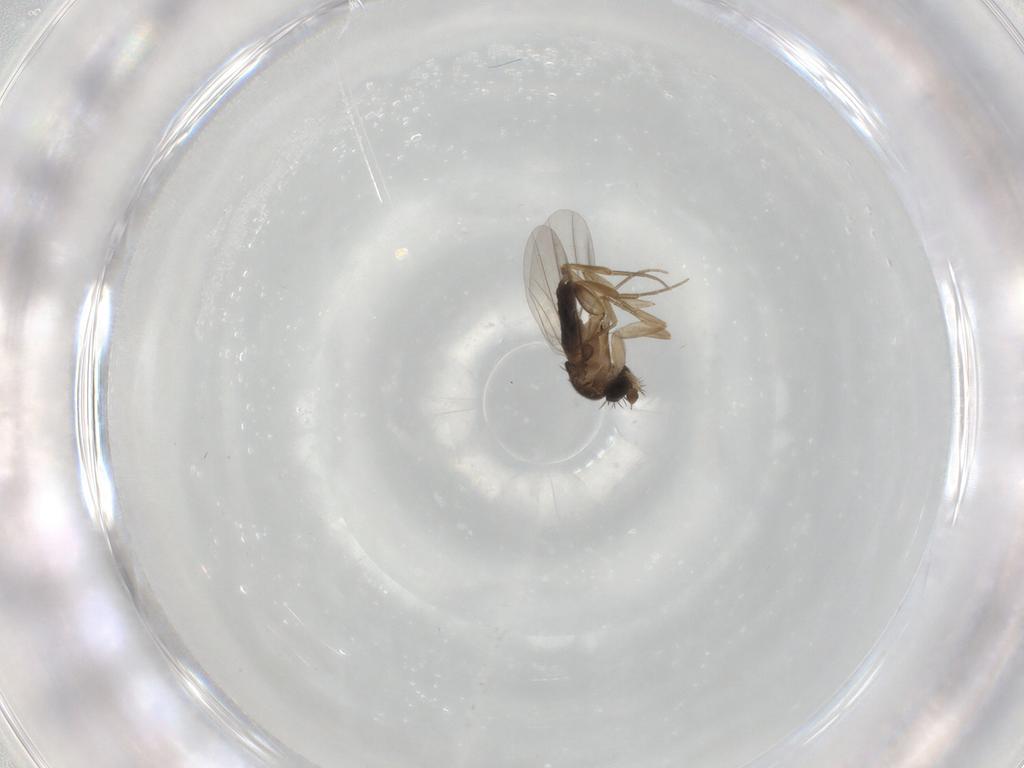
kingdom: Animalia
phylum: Arthropoda
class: Insecta
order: Diptera
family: Phoridae
